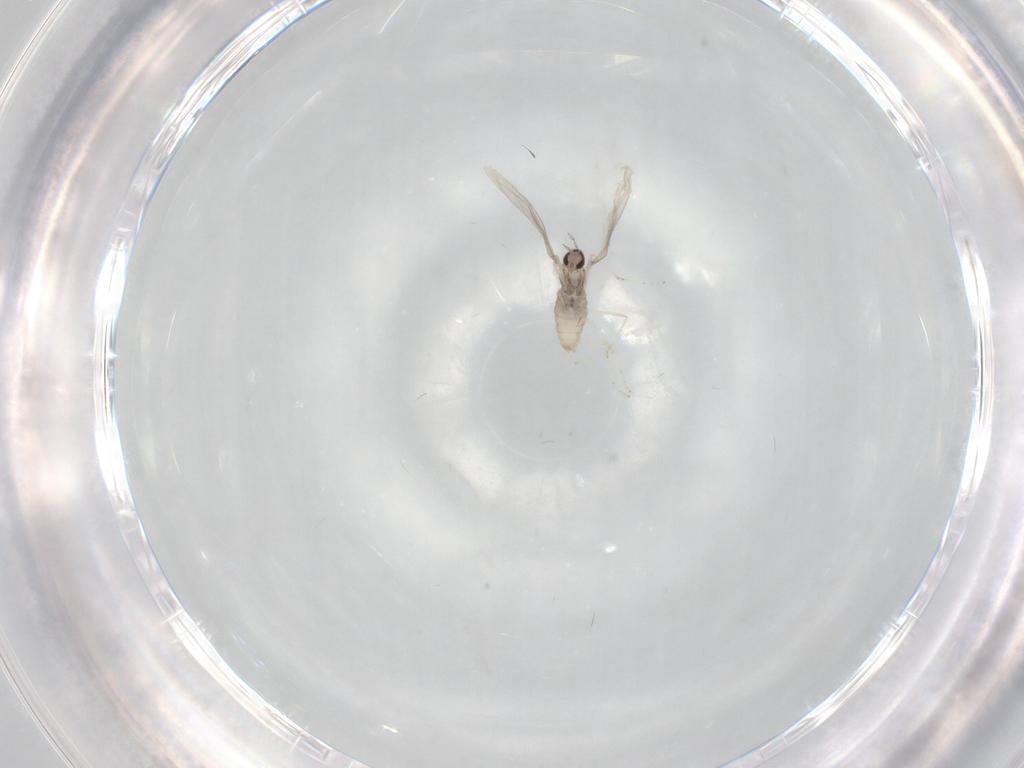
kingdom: Animalia
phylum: Arthropoda
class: Insecta
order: Diptera
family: Cecidomyiidae
